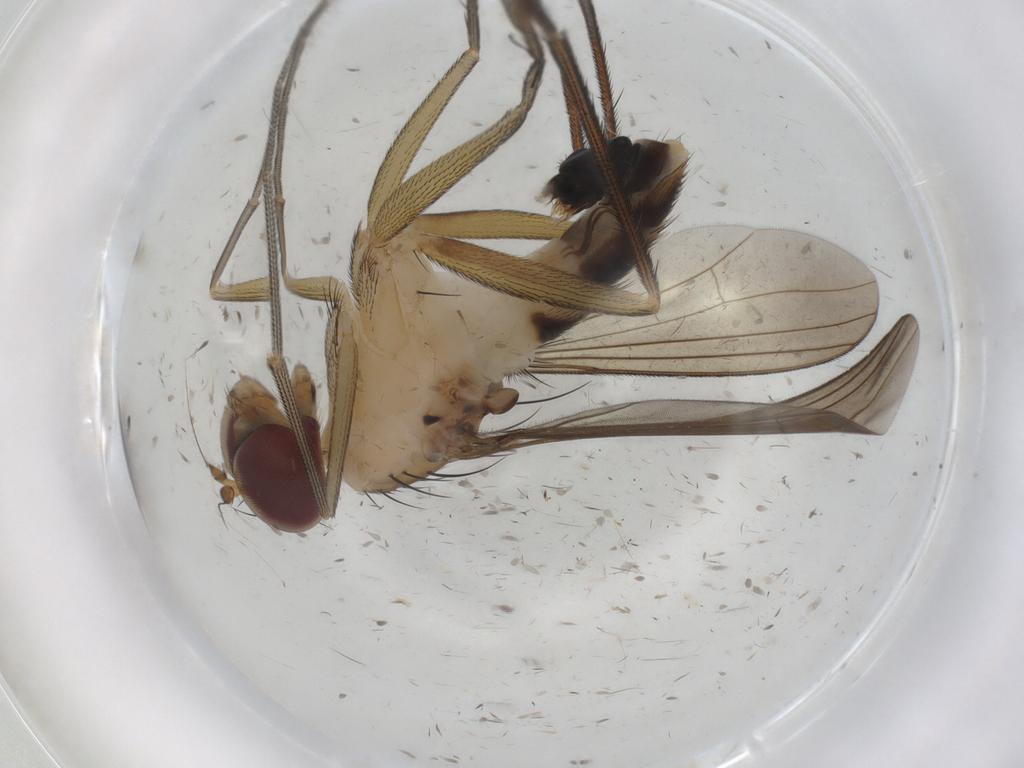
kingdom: Animalia
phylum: Arthropoda
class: Insecta
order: Diptera
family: Dolichopodidae
